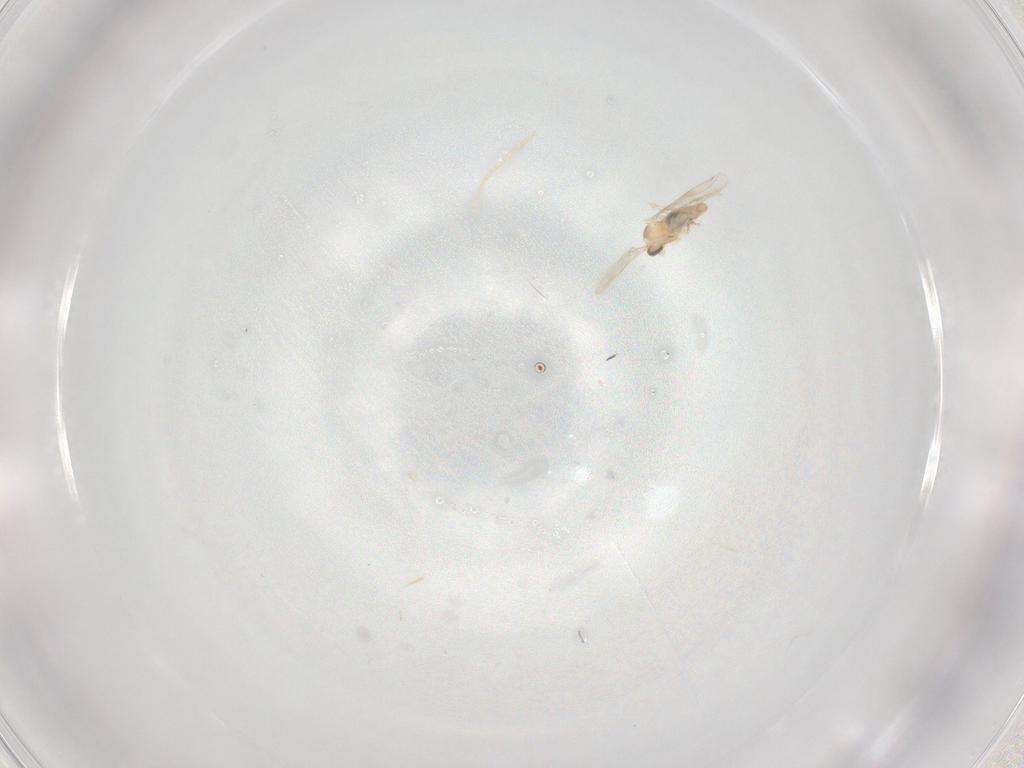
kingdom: Animalia
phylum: Arthropoda
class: Insecta
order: Diptera
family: Cecidomyiidae
